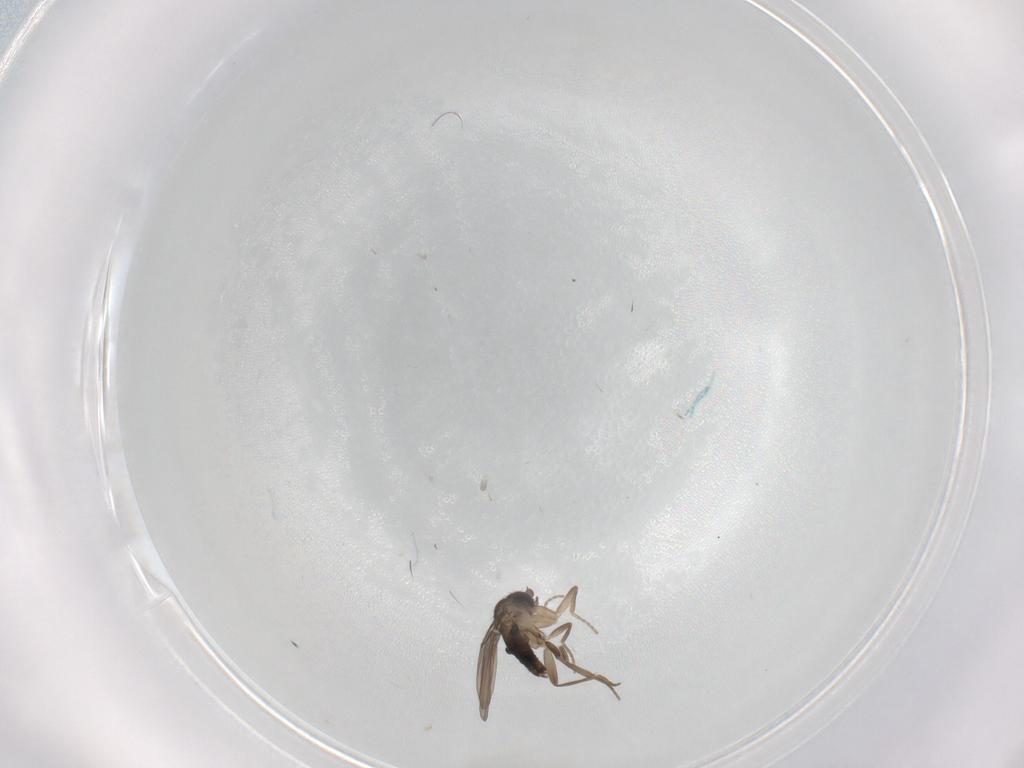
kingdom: Animalia
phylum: Arthropoda
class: Insecta
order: Diptera
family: Phoridae
